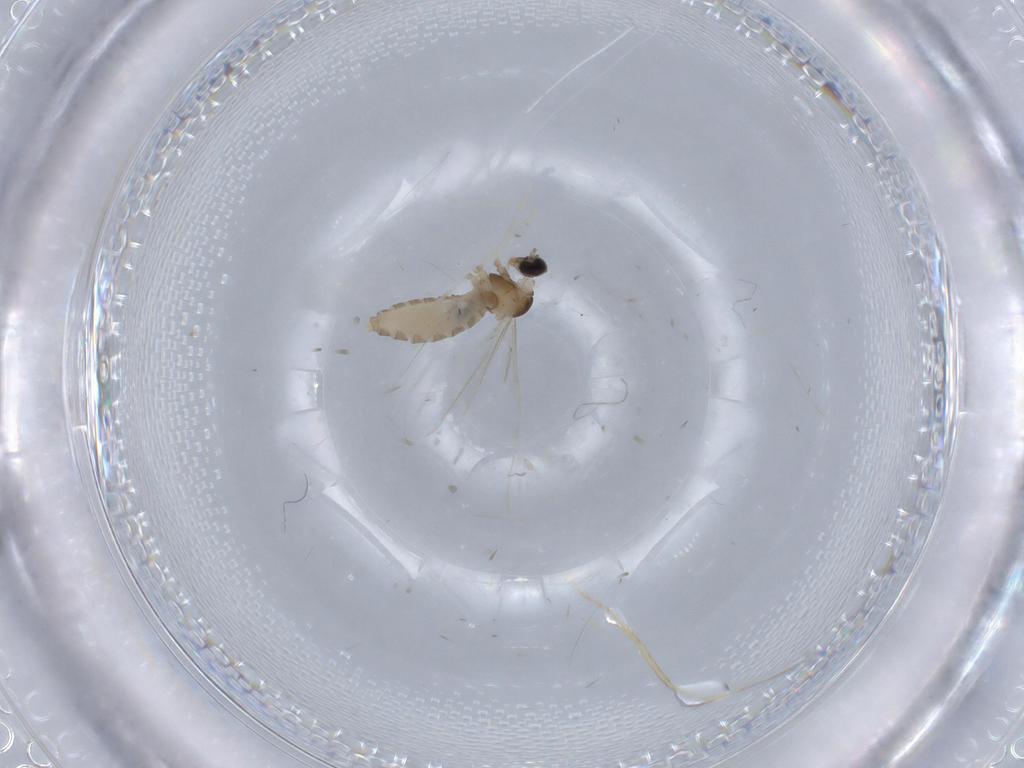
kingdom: Animalia
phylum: Arthropoda
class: Insecta
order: Diptera
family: Cecidomyiidae
